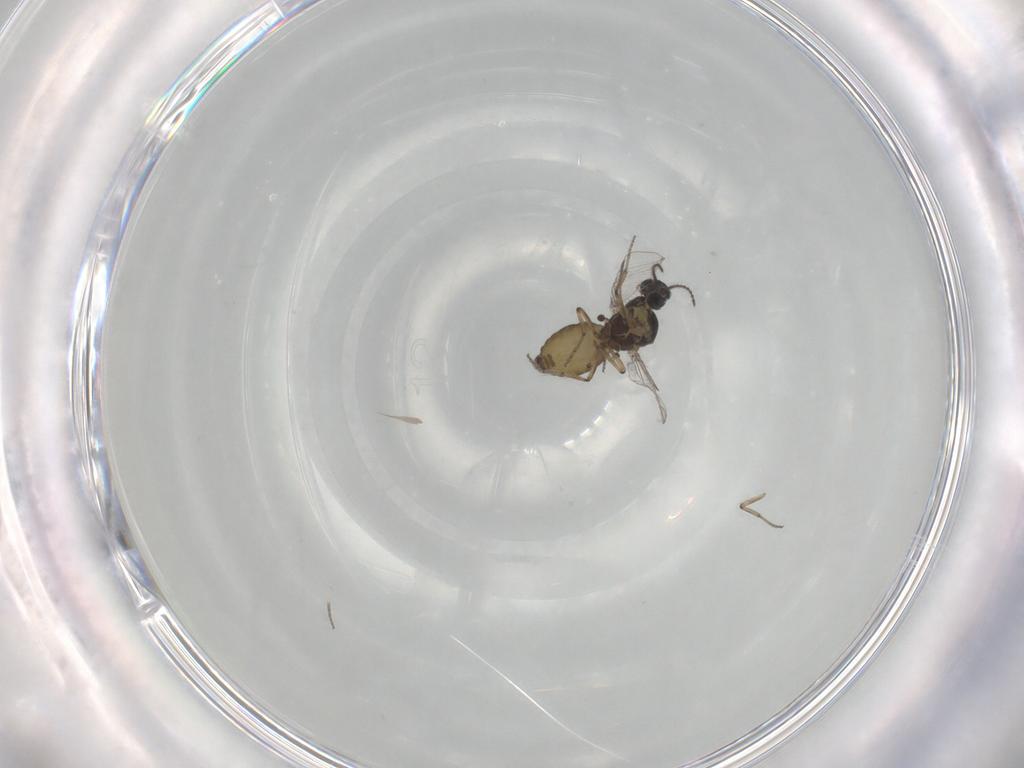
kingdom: Animalia
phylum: Arthropoda
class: Insecta
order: Diptera
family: Ceratopogonidae
